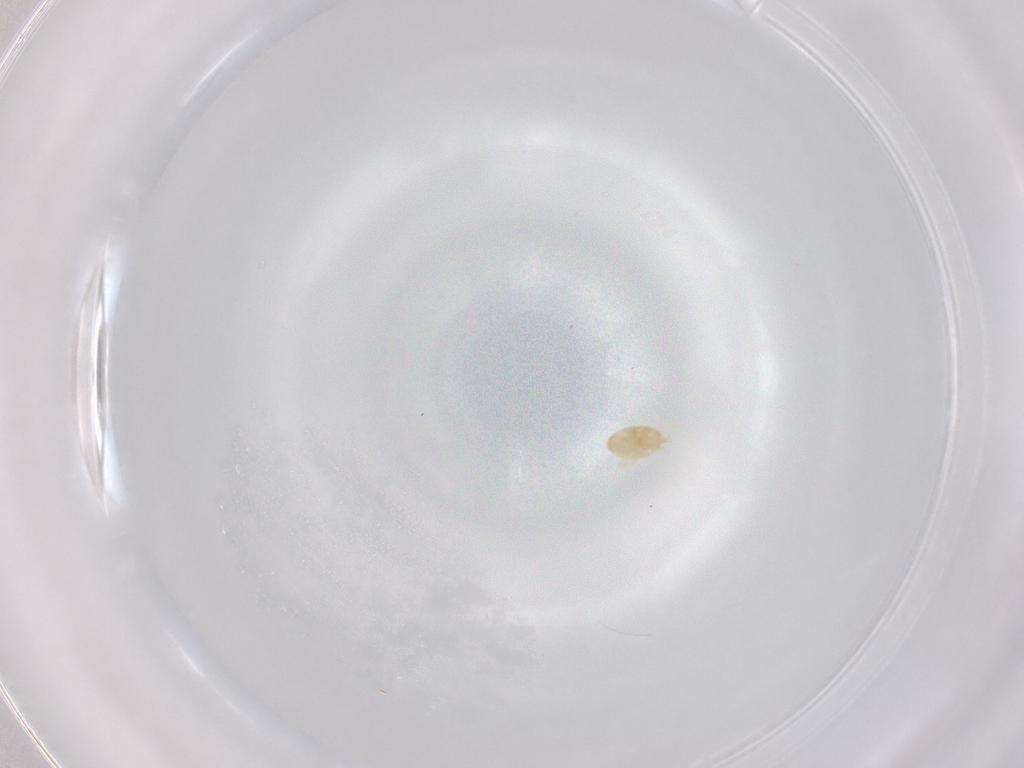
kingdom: Animalia
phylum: Arthropoda
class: Arachnida
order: Trombidiformes
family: Eupodidae
